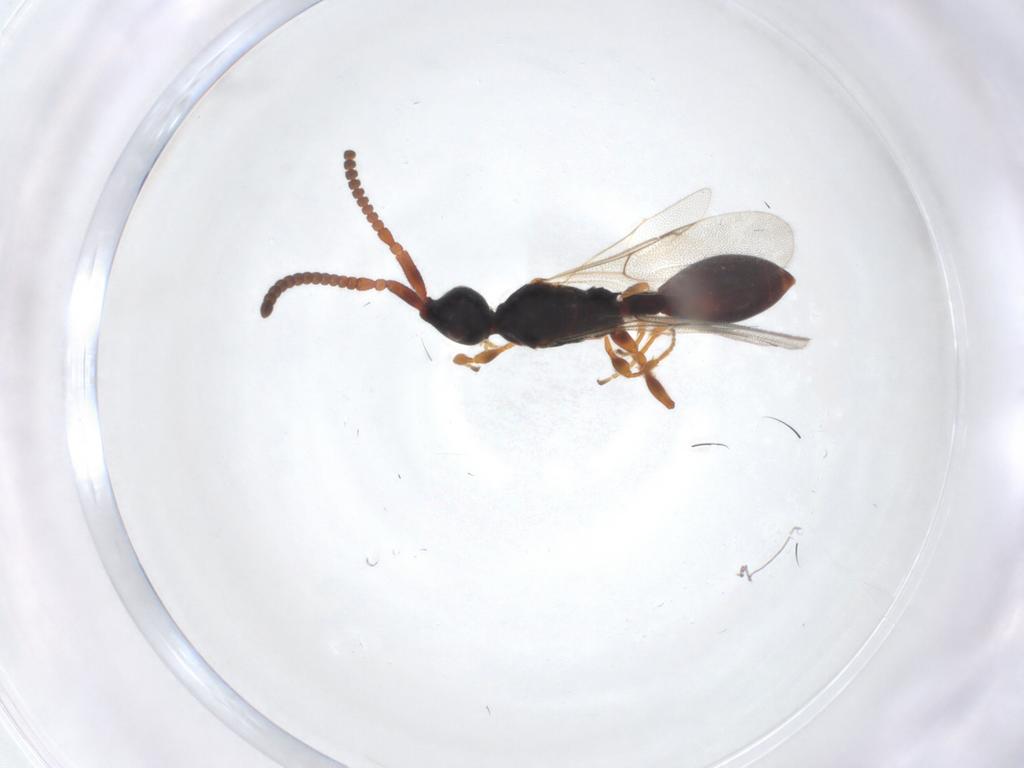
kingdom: Animalia
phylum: Arthropoda
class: Insecta
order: Hymenoptera
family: Diapriidae
